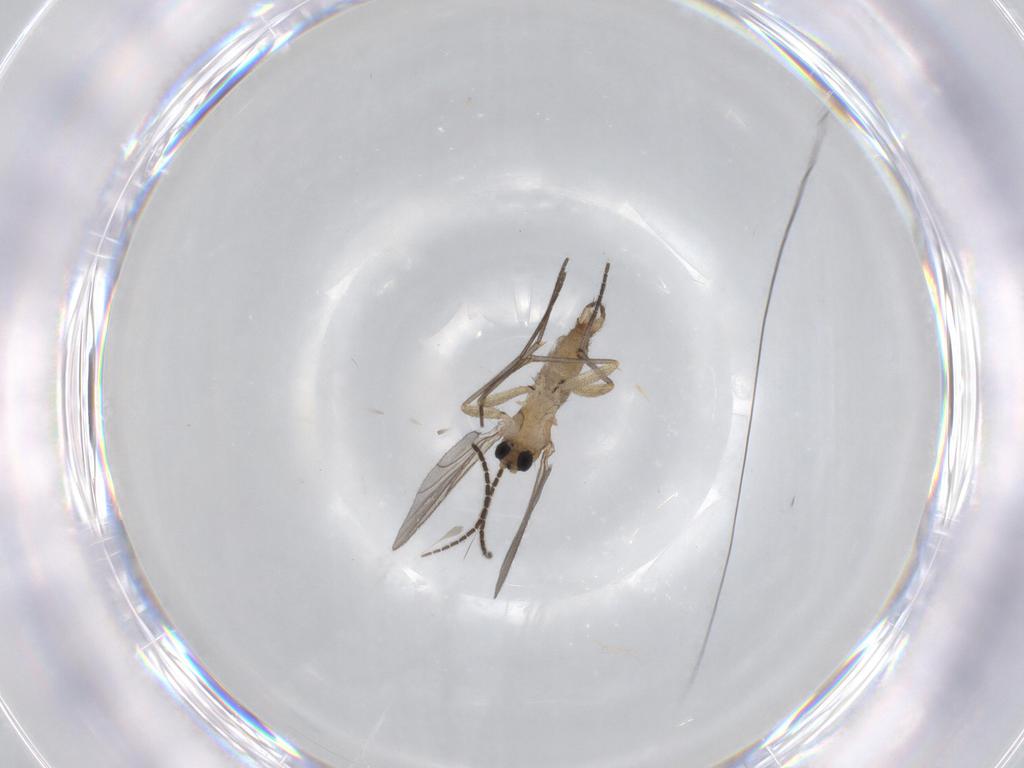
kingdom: Animalia
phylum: Arthropoda
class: Insecta
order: Diptera
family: Sciaridae
